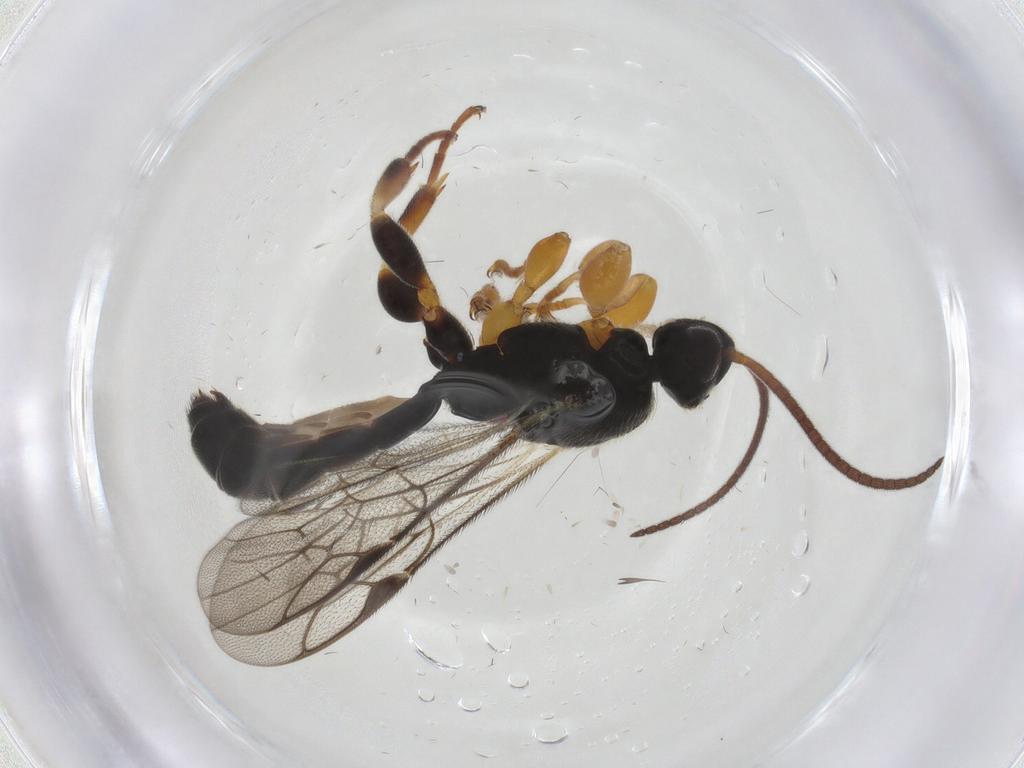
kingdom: Animalia
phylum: Arthropoda
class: Insecta
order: Hymenoptera
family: Ichneumonidae
